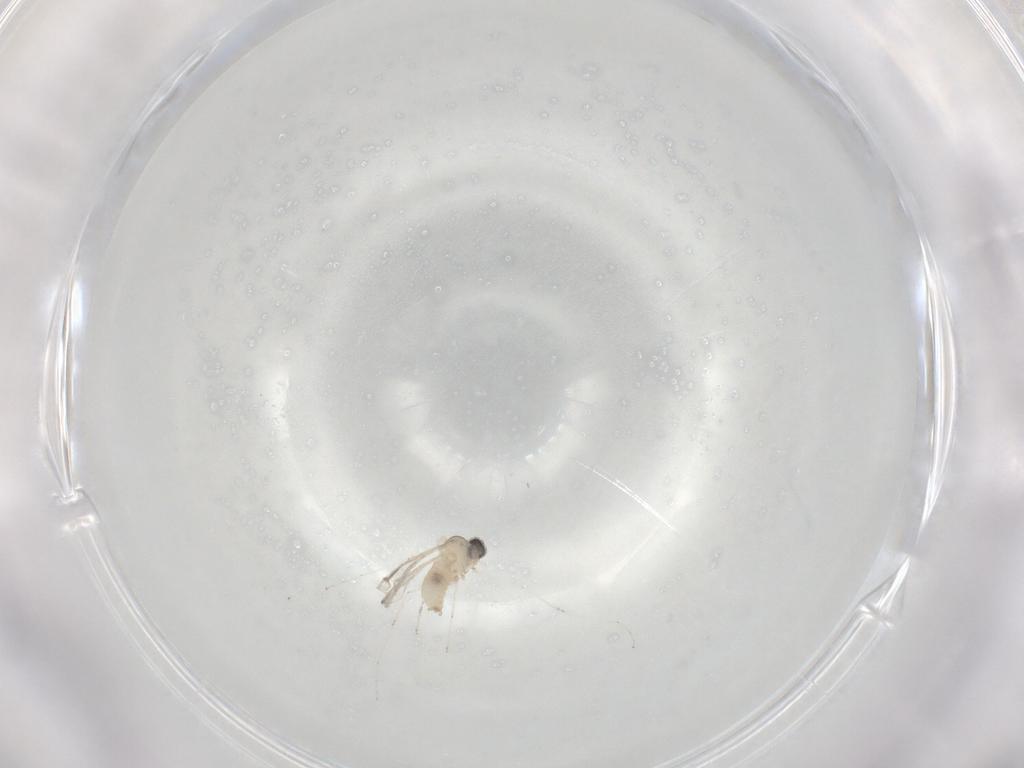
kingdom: Animalia
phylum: Arthropoda
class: Insecta
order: Diptera
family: Cecidomyiidae
